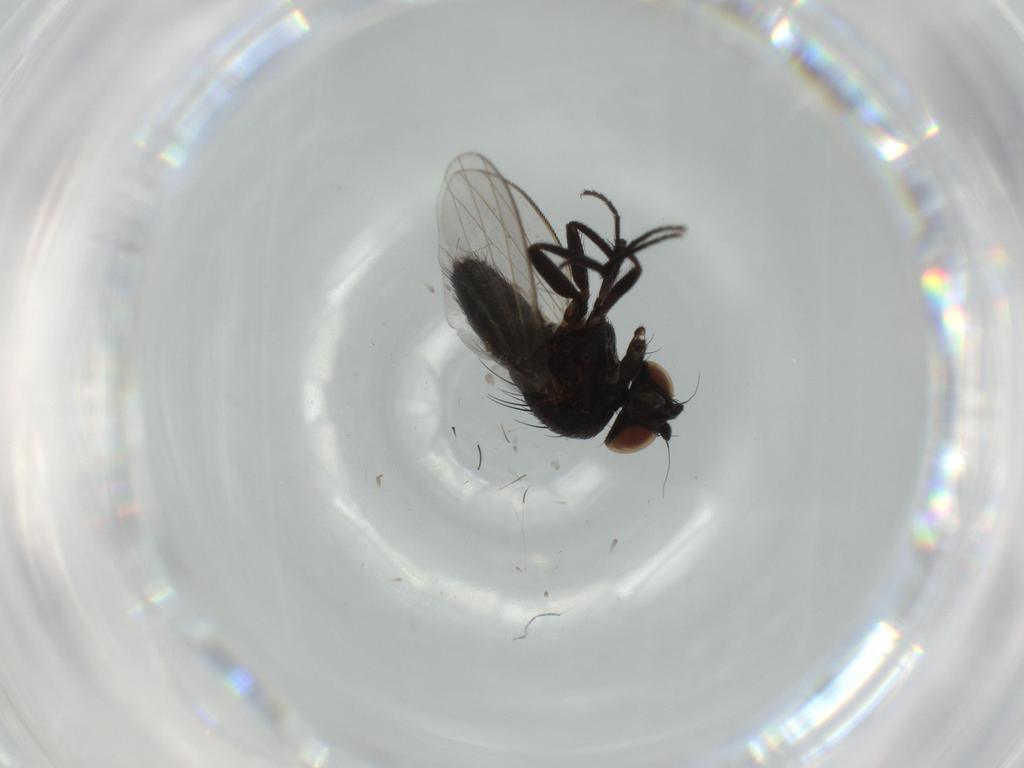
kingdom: Animalia
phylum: Arthropoda
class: Insecta
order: Diptera
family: Milichiidae
